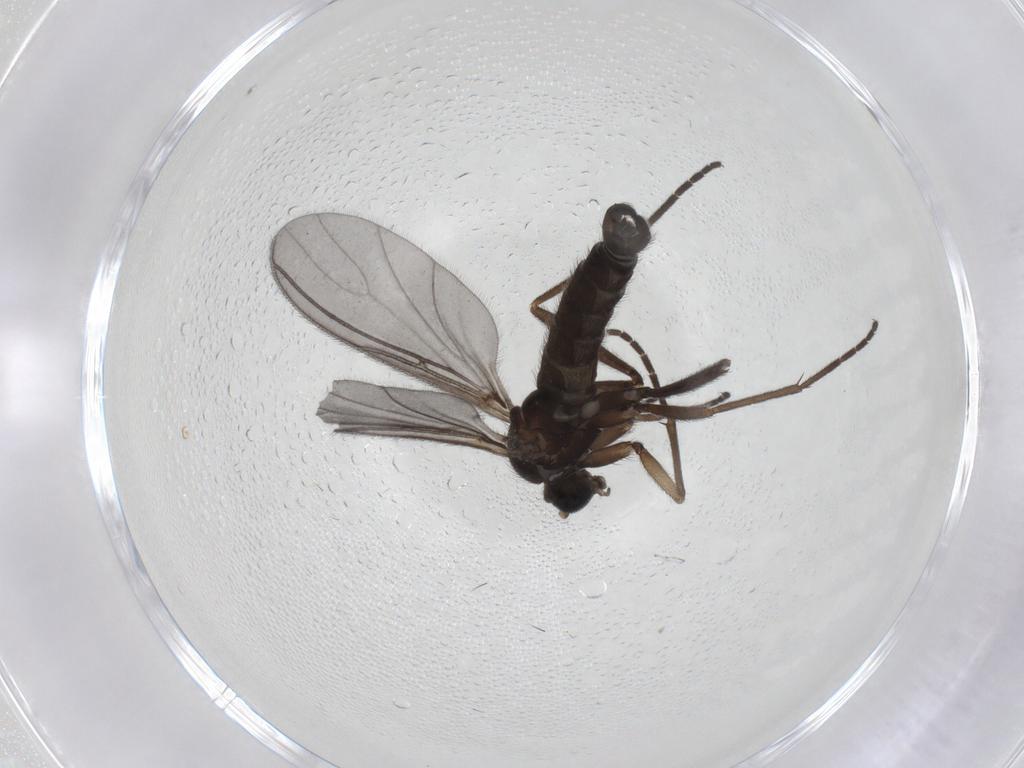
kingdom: Animalia
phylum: Arthropoda
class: Insecta
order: Diptera
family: Sciaridae
